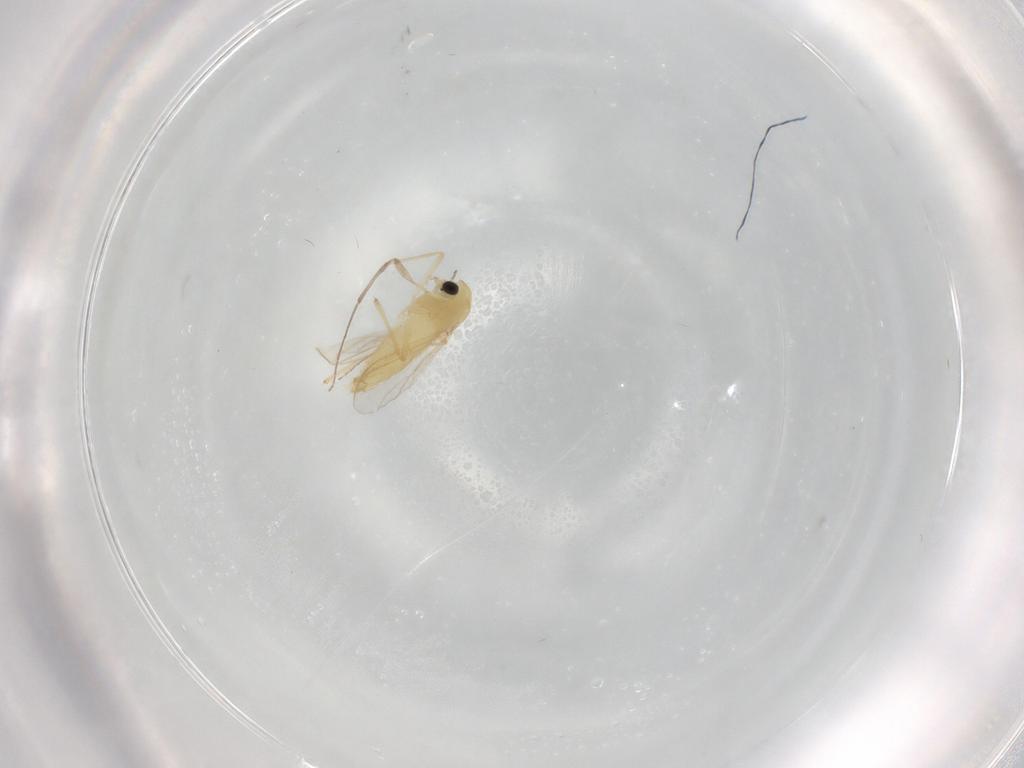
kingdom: Animalia
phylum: Arthropoda
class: Insecta
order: Diptera
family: Chironomidae
